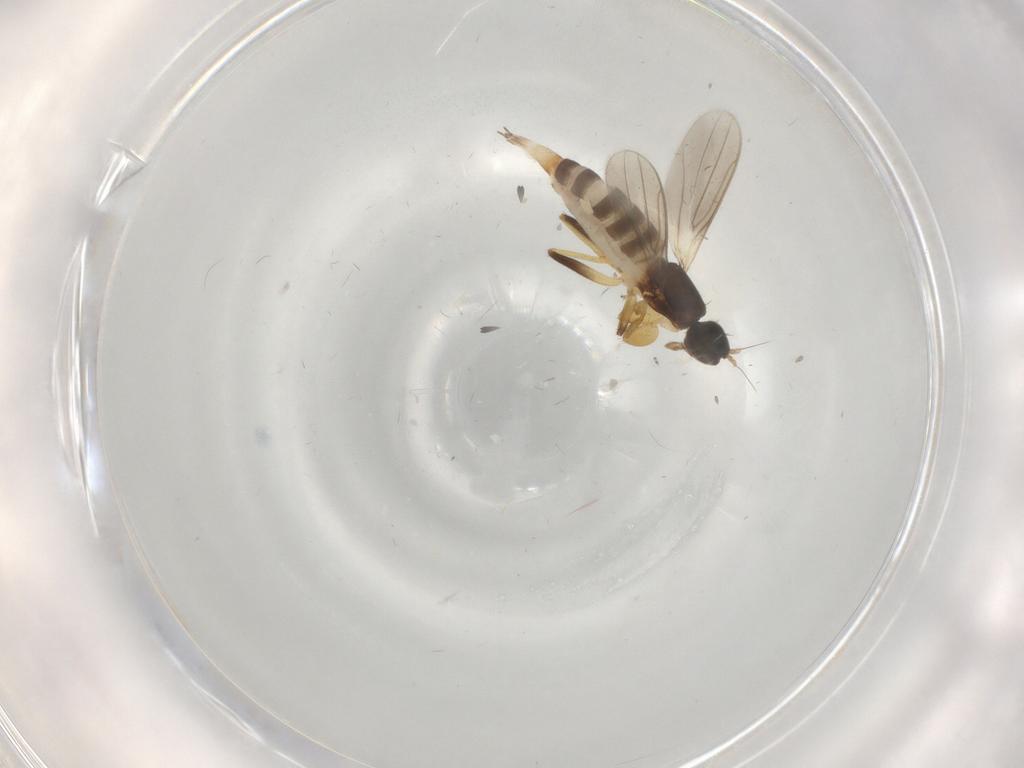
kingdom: Animalia
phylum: Arthropoda
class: Insecta
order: Diptera
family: Hybotidae
